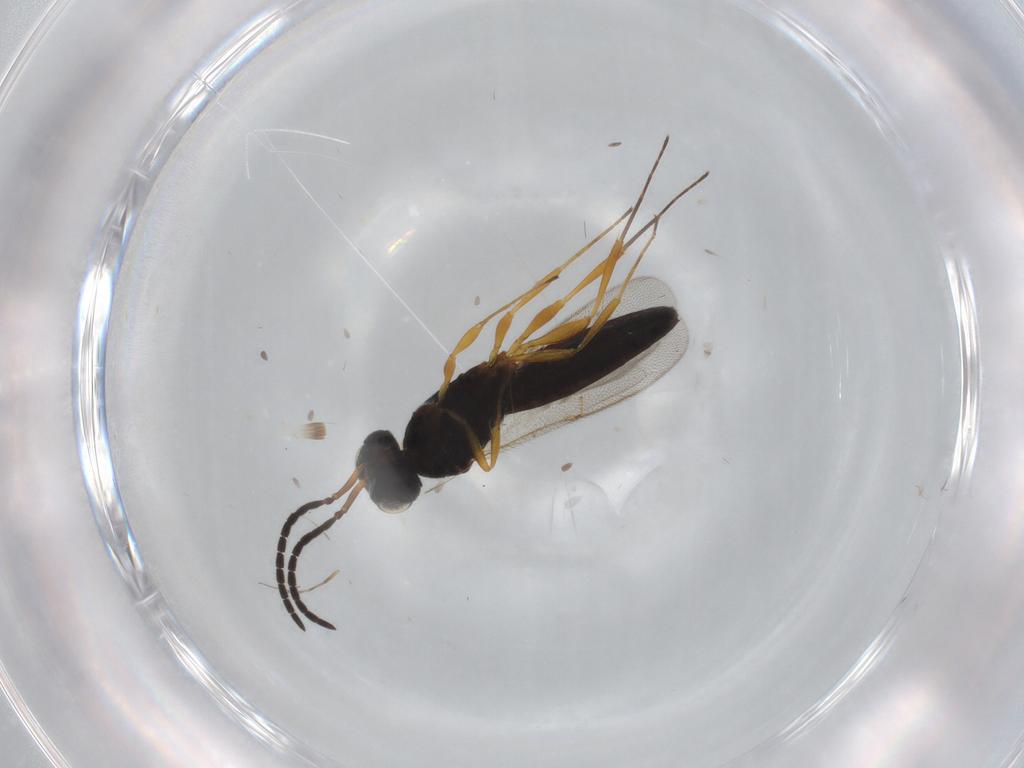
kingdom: Animalia
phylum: Arthropoda
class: Insecta
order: Hymenoptera
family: Scelionidae
